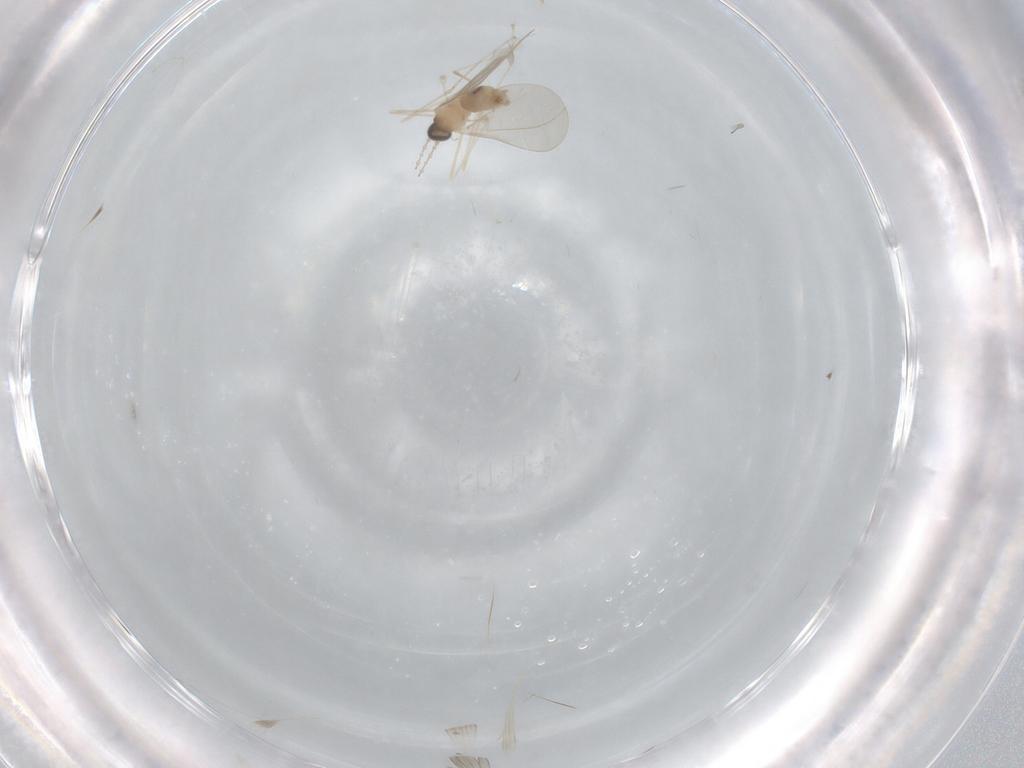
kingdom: Animalia
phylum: Arthropoda
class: Insecta
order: Diptera
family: Cecidomyiidae
